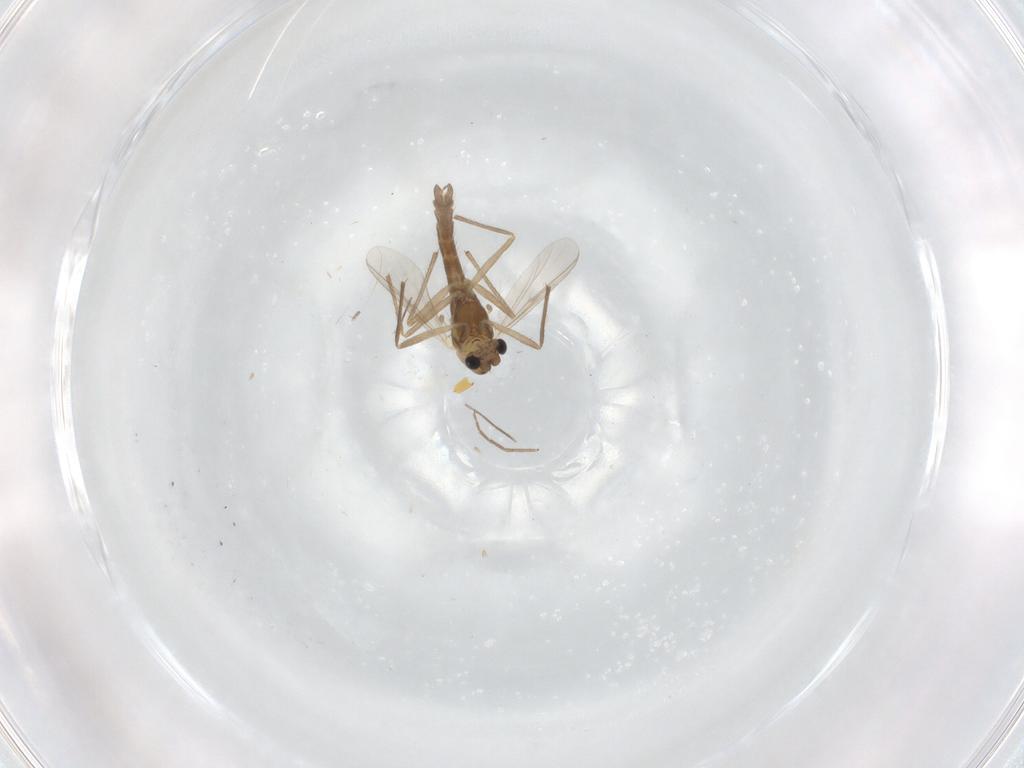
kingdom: Animalia
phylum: Arthropoda
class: Insecta
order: Diptera
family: Chironomidae
